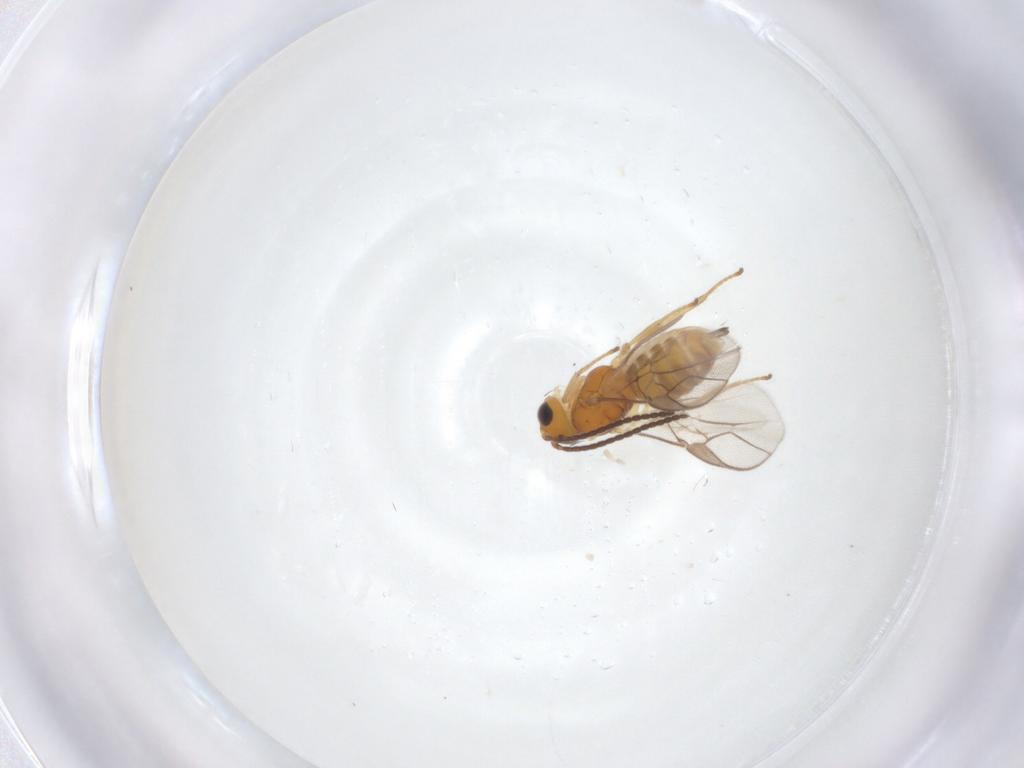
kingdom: Animalia
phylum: Arthropoda
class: Insecta
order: Hymenoptera
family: Braconidae
